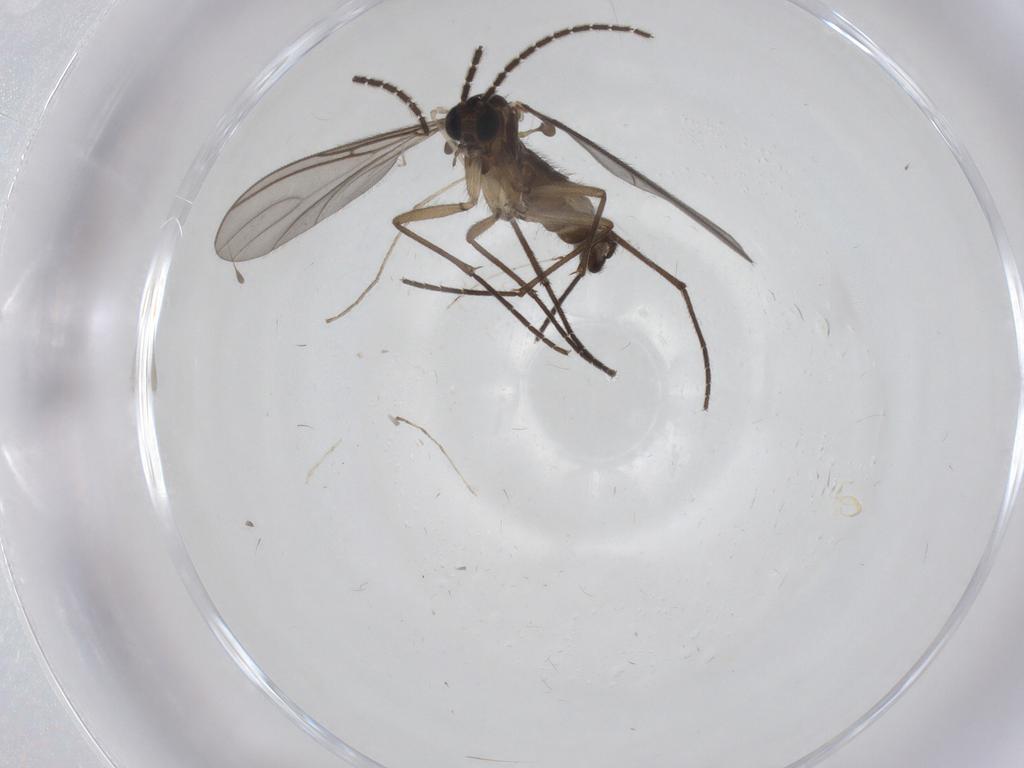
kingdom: Animalia
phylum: Arthropoda
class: Insecta
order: Diptera
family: Sciaridae
